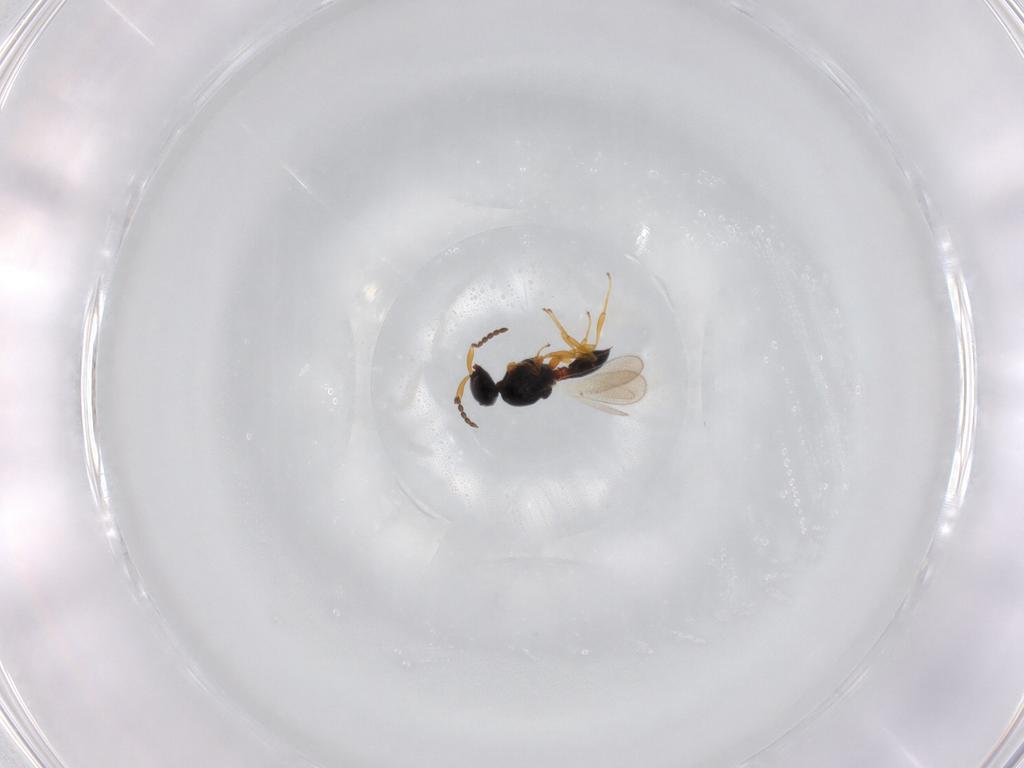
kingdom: Animalia
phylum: Arthropoda
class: Insecta
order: Hymenoptera
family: Platygastridae
